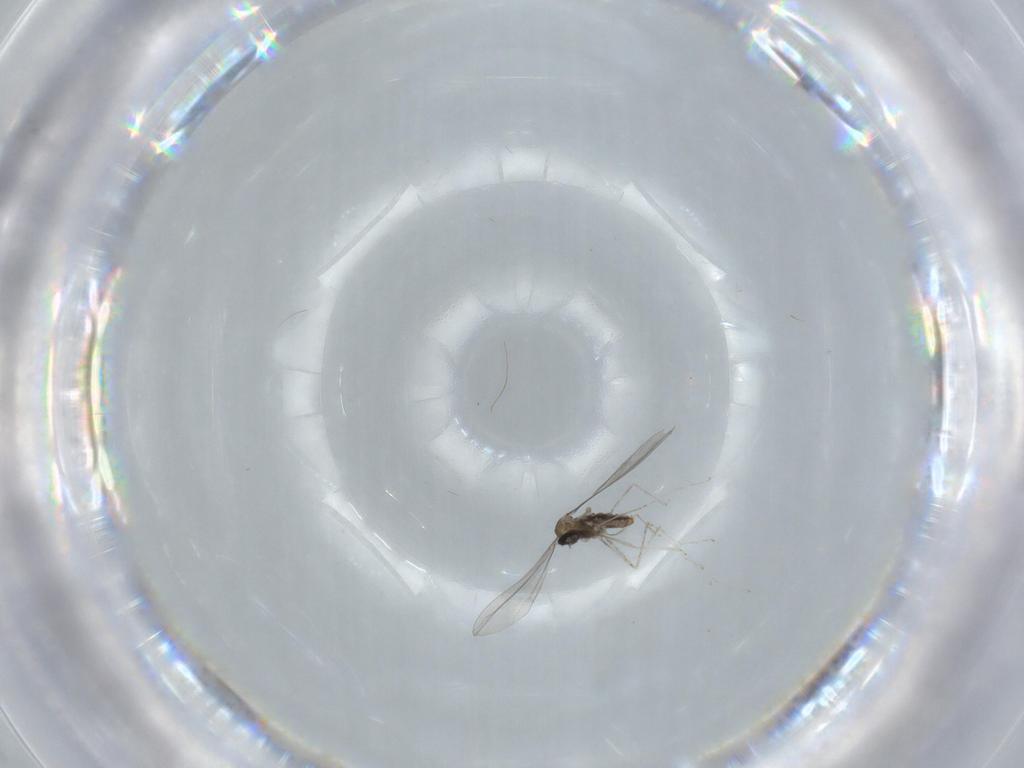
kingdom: Animalia
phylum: Arthropoda
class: Insecta
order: Diptera
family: Cecidomyiidae
